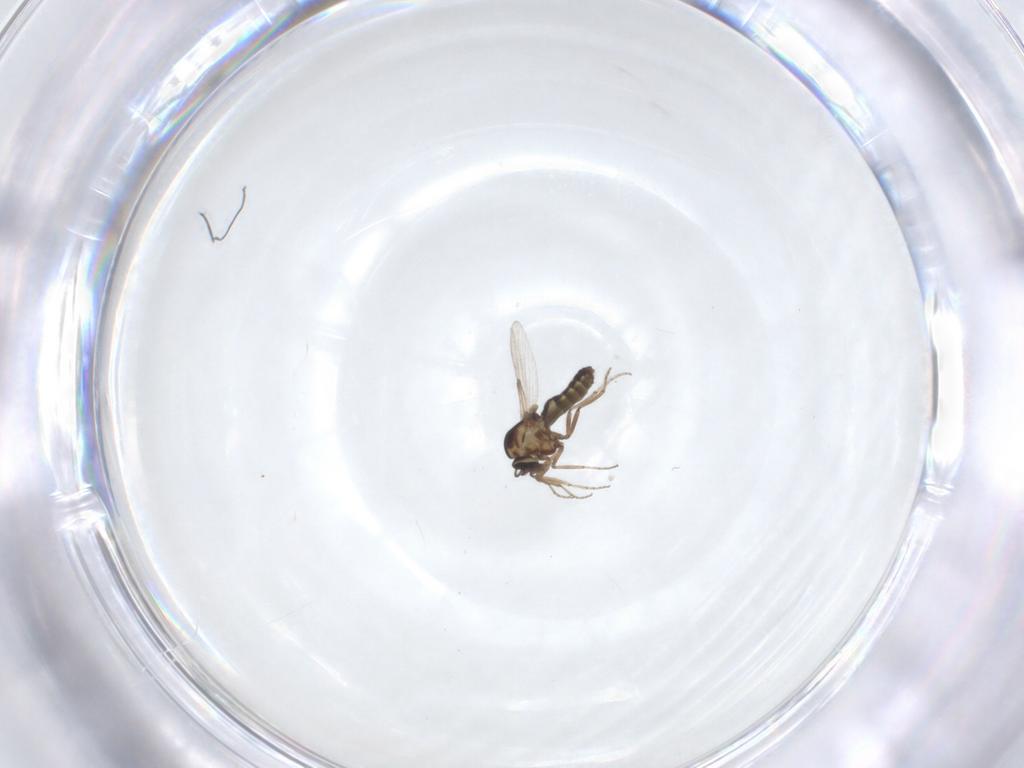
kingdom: Animalia
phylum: Arthropoda
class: Insecta
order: Diptera
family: Ceratopogonidae
